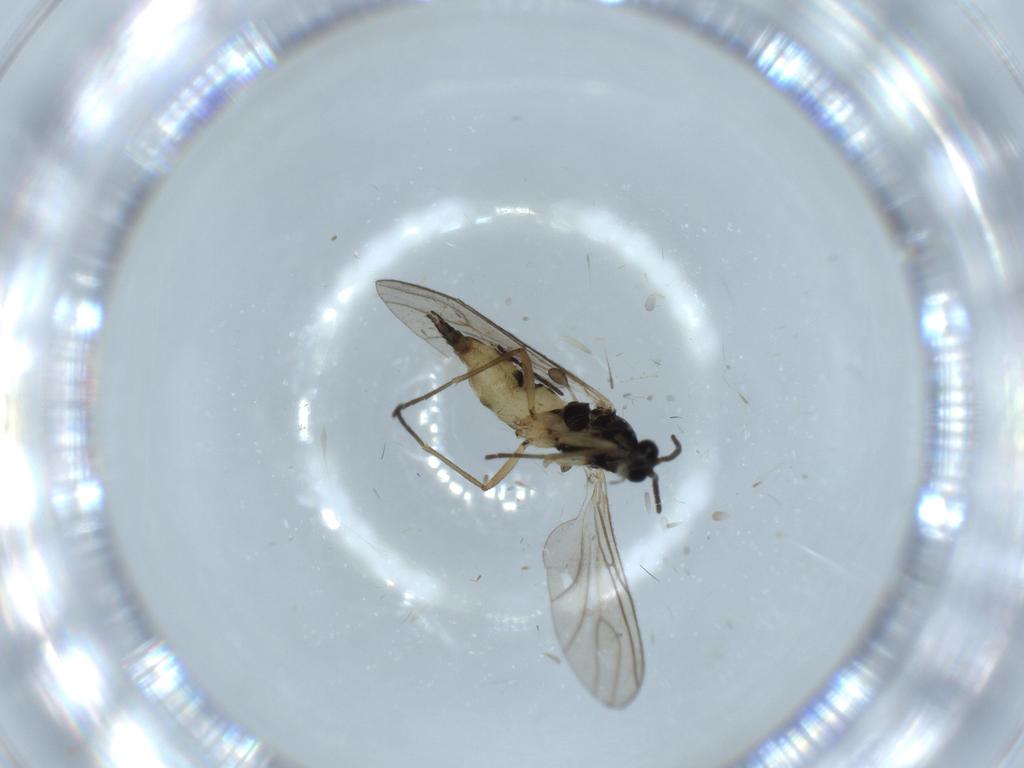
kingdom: Animalia
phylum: Arthropoda
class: Insecta
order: Diptera
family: Sciaridae
